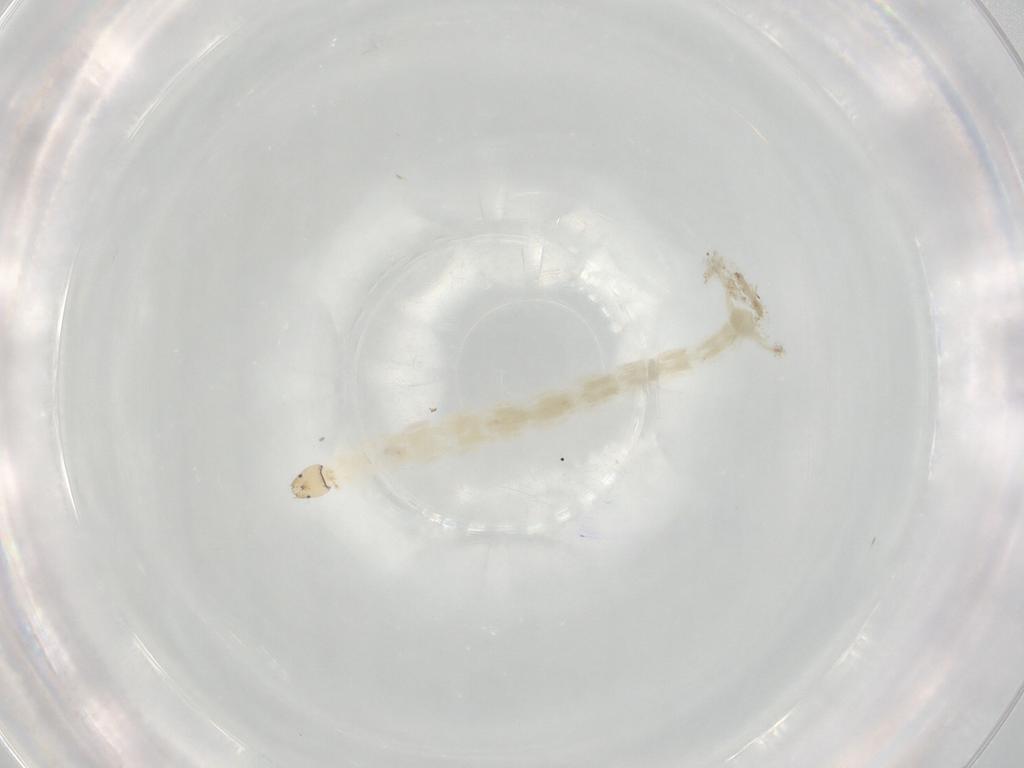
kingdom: Animalia
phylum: Arthropoda
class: Insecta
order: Diptera
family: Chironomidae
